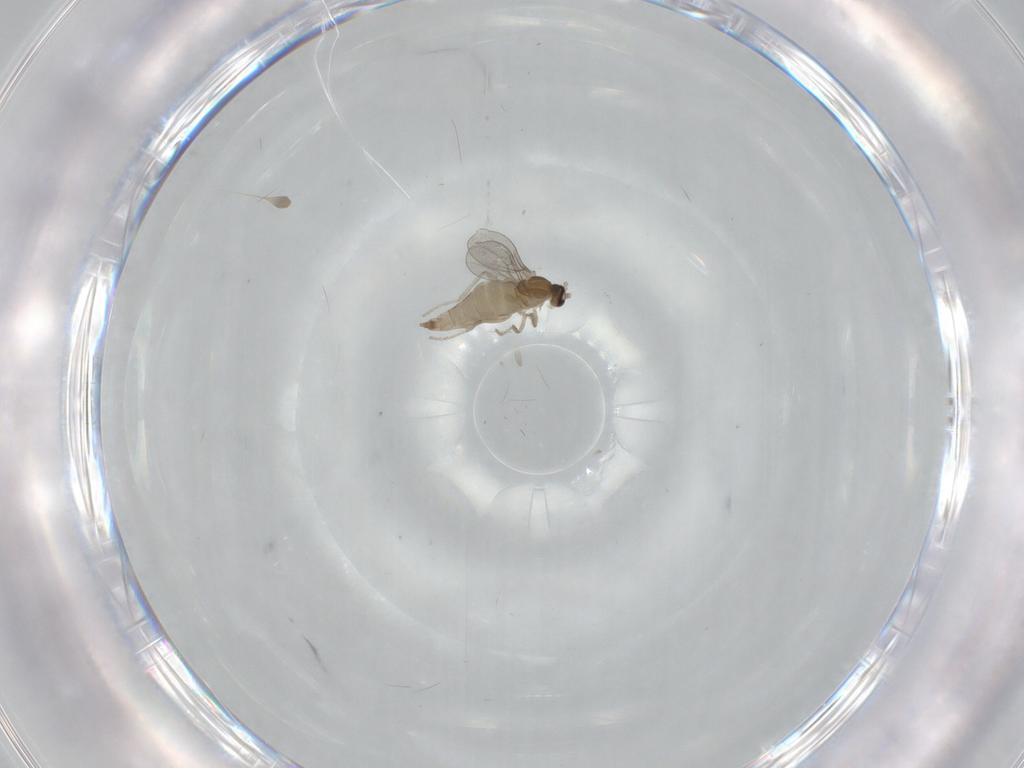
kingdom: Animalia
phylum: Arthropoda
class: Insecta
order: Diptera
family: Cecidomyiidae
